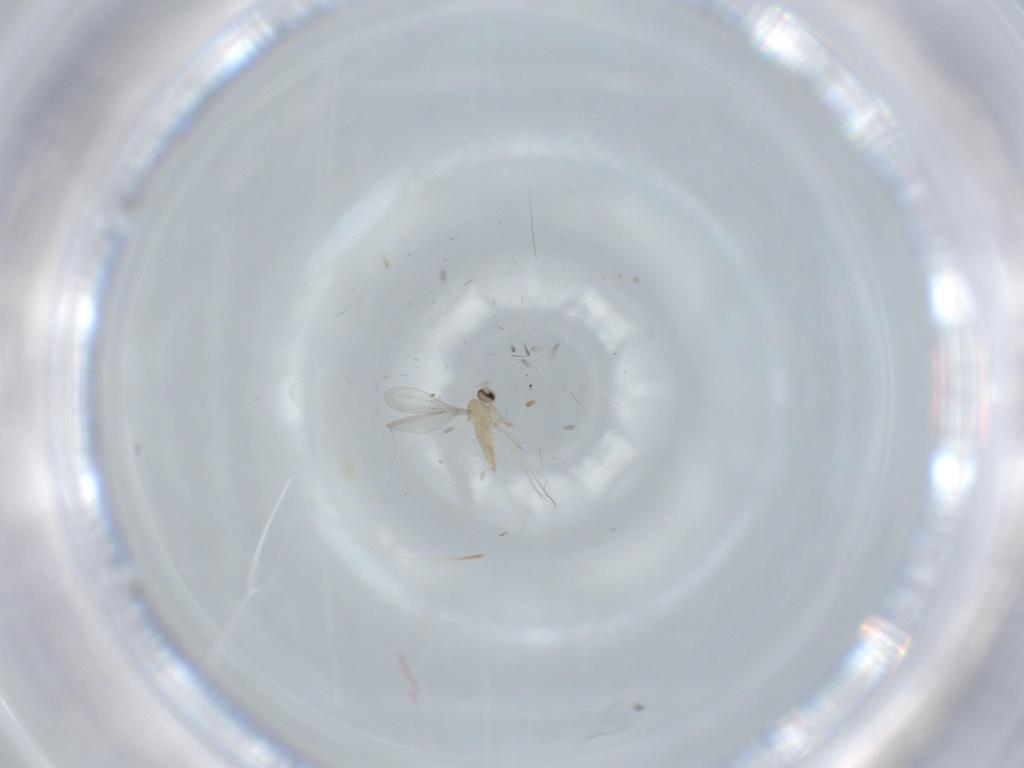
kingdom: Animalia
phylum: Arthropoda
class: Insecta
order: Diptera
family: Cecidomyiidae
